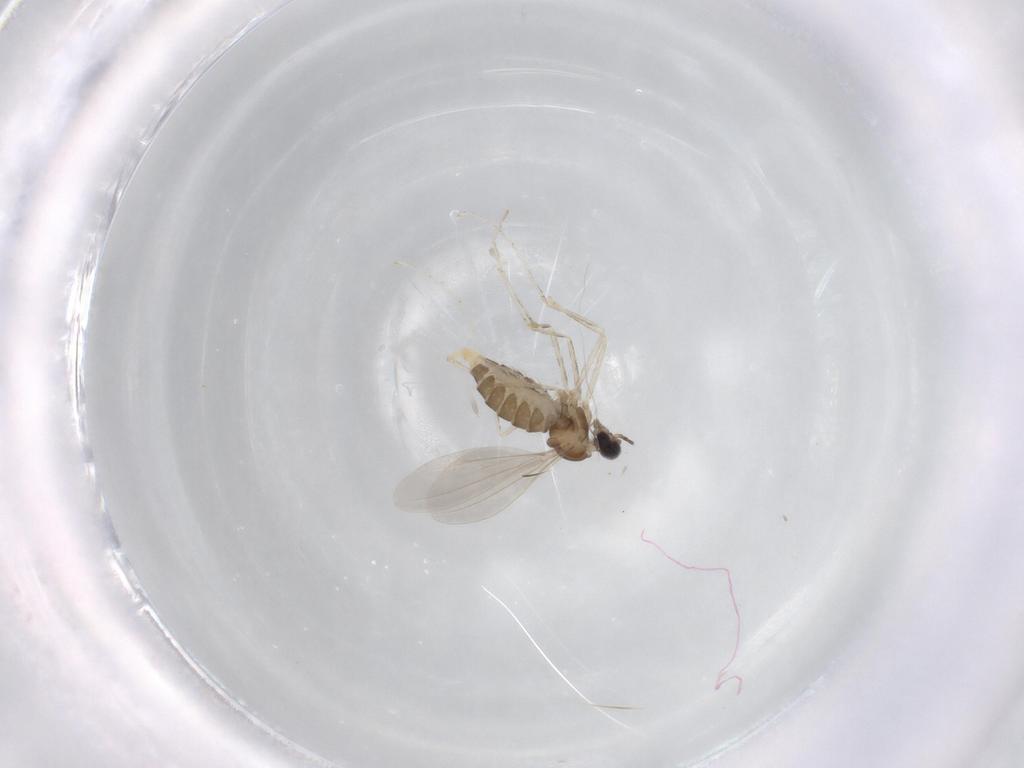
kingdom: Animalia
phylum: Arthropoda
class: Insecta
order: Diptera
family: Cecidomyiidae
